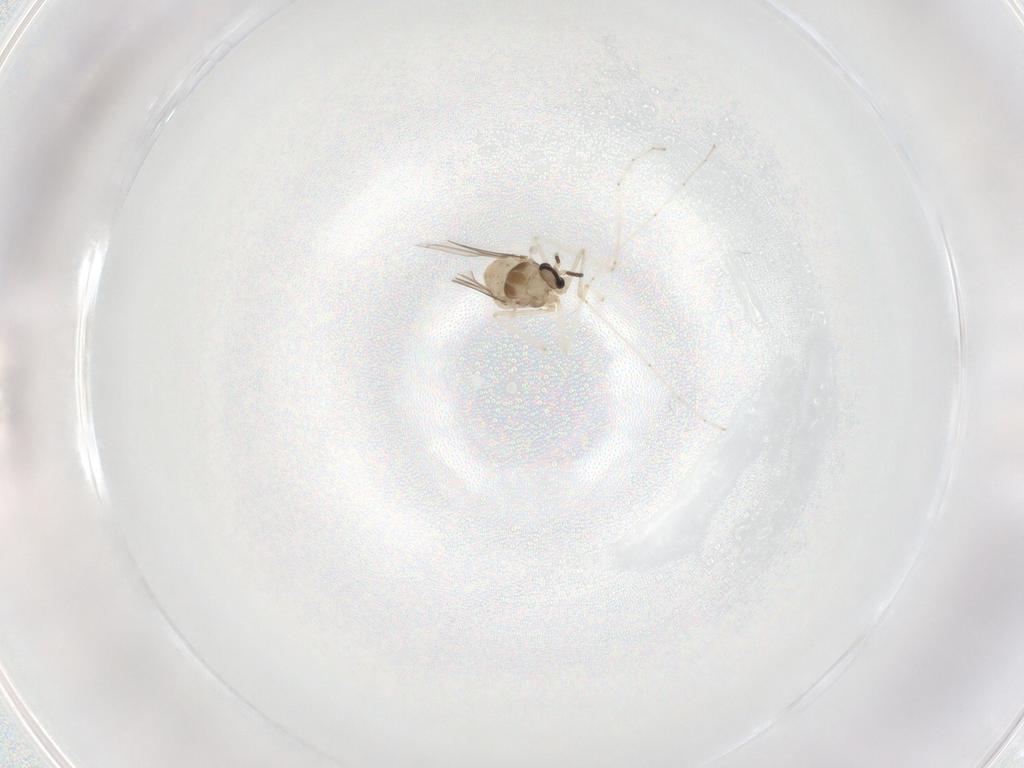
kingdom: Animalia
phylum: Arthropoda
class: Insecta
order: Diptera
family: Cecidomyiidae
